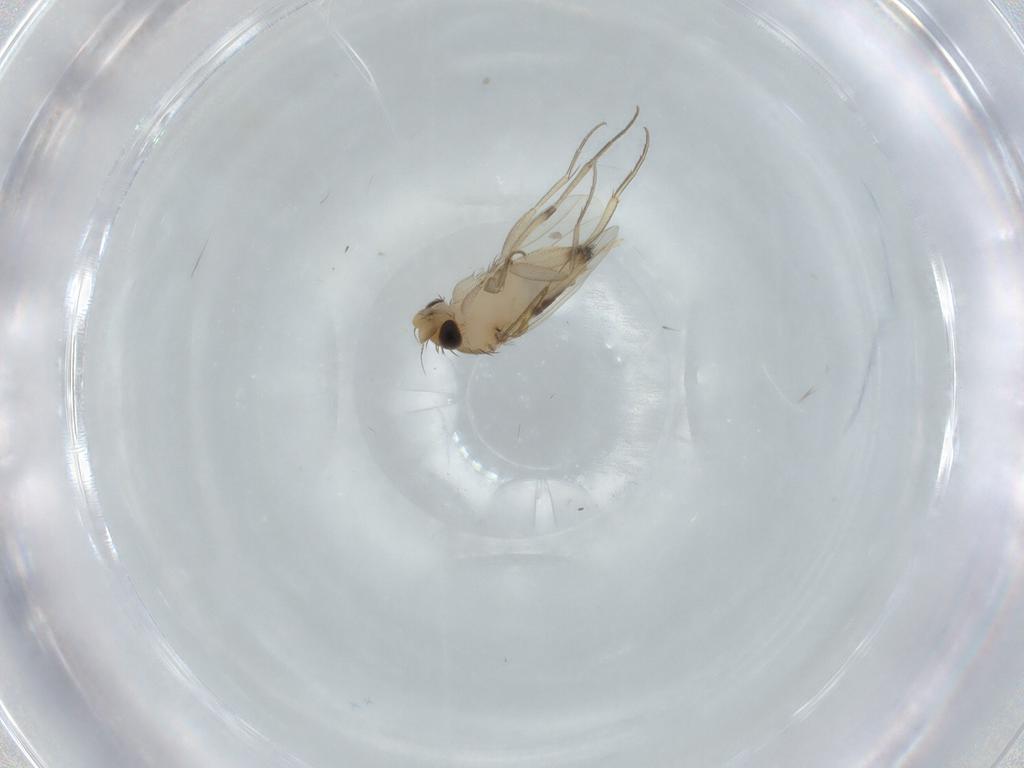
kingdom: Animalia
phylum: Arthropoda
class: Insecta
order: Diptera
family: Phoridae
